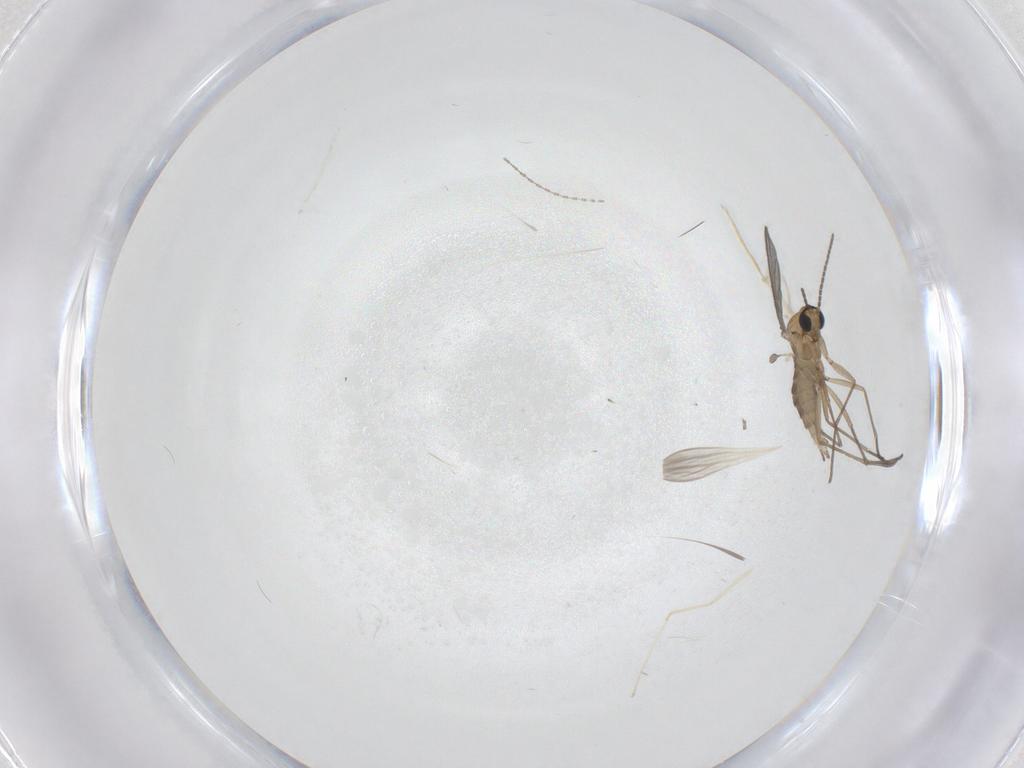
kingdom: Animalia
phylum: Arthropoda
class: Insecta
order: Diptera
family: Sciaridae
